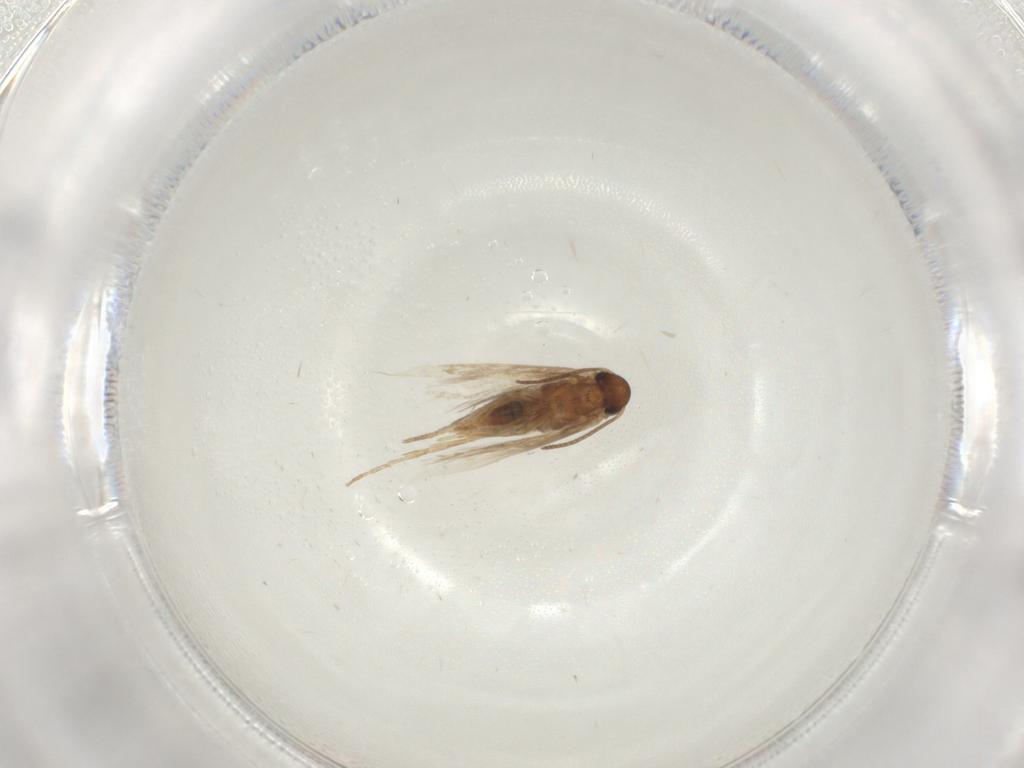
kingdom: Animalia
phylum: Arthropoda
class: Insecta
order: Lepidoptera
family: Heliozelidae
